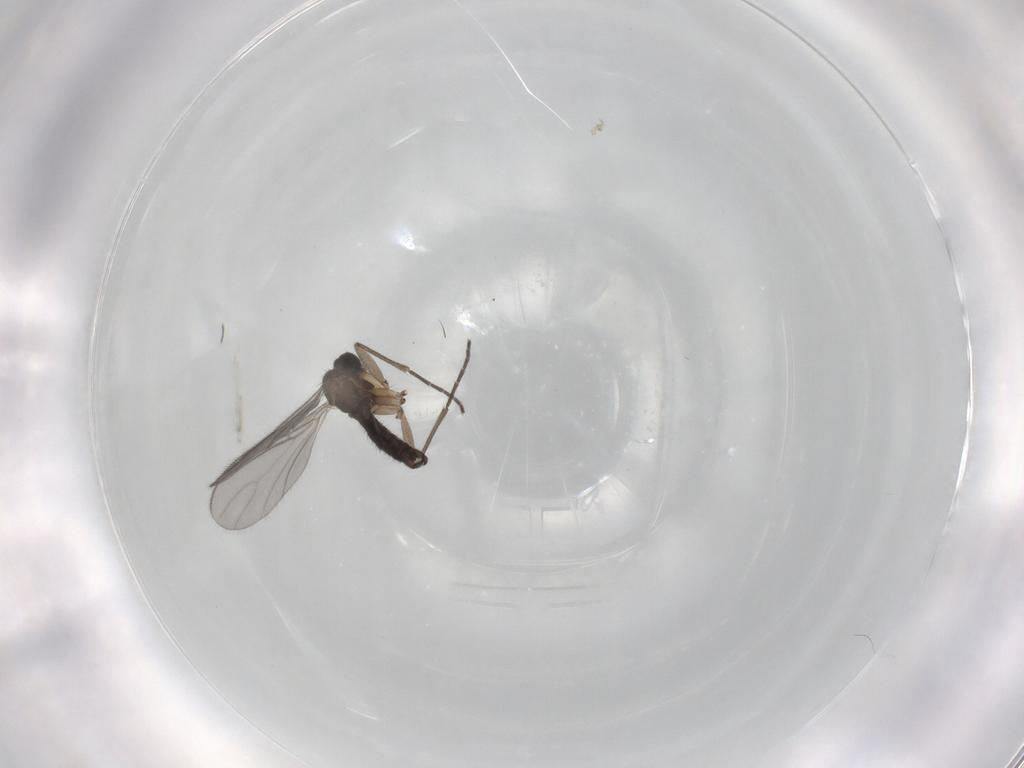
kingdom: Animalia
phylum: Arthropoda
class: Insecta
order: Diptera
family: Sciaridae
